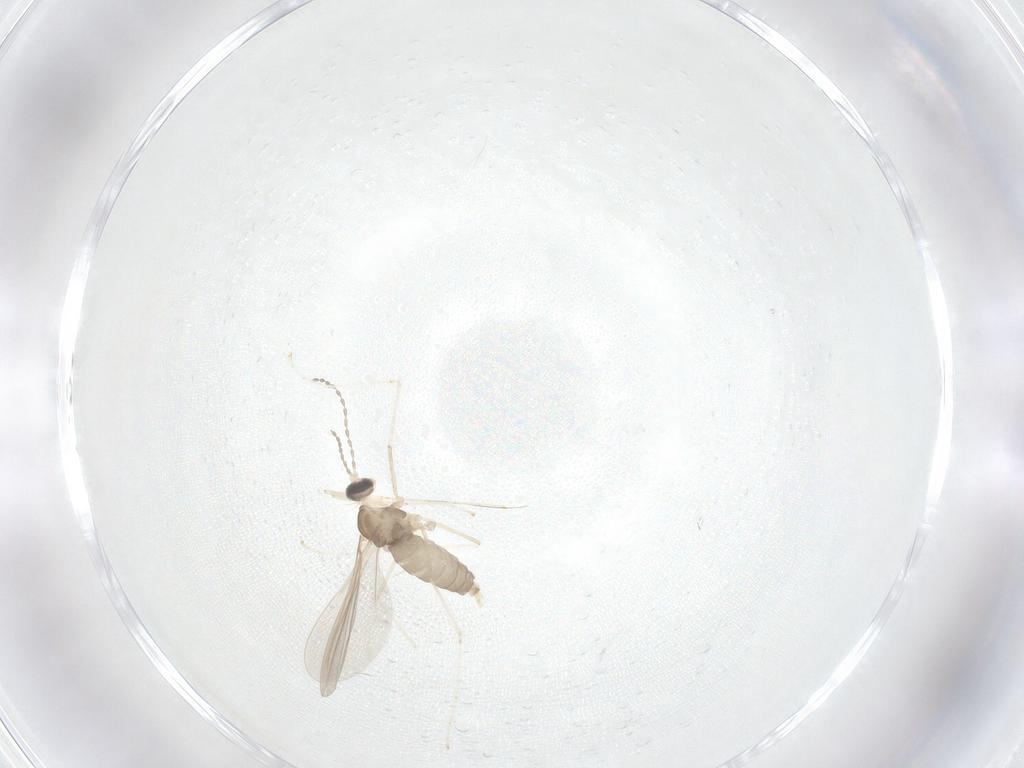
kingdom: Animalia
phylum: Arthropoda
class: Insecta
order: Diptera
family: Cecidomyiidae
